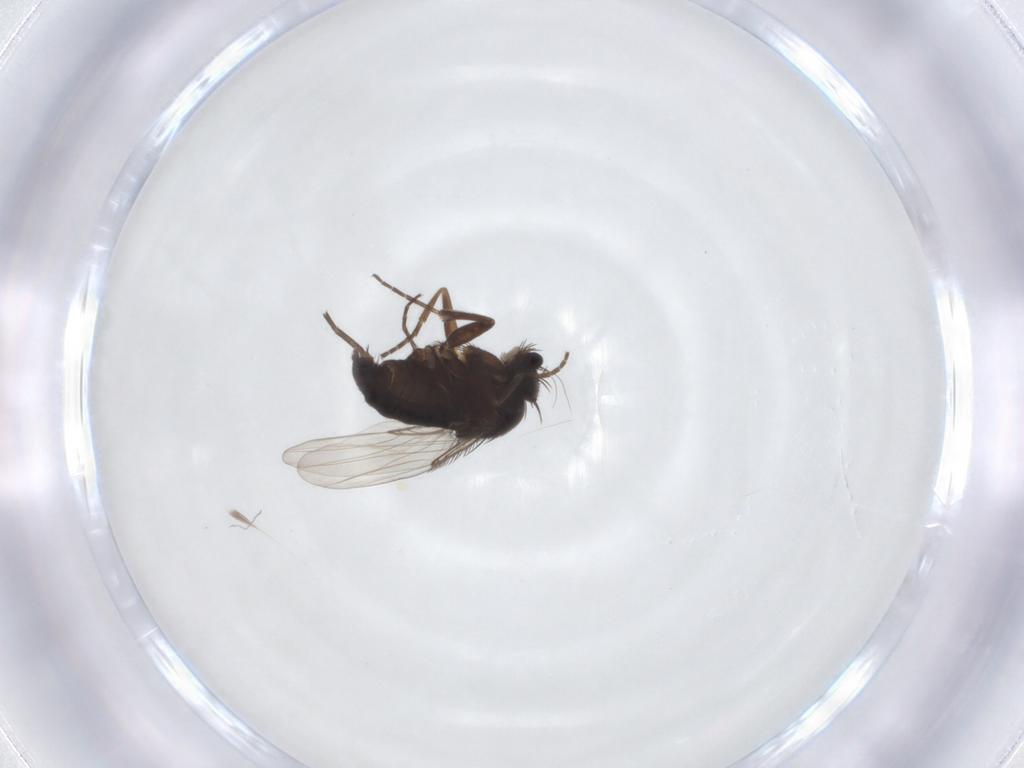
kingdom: Animalia
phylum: Arthropoda
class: Insecta
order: Diptera
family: Phoridae
